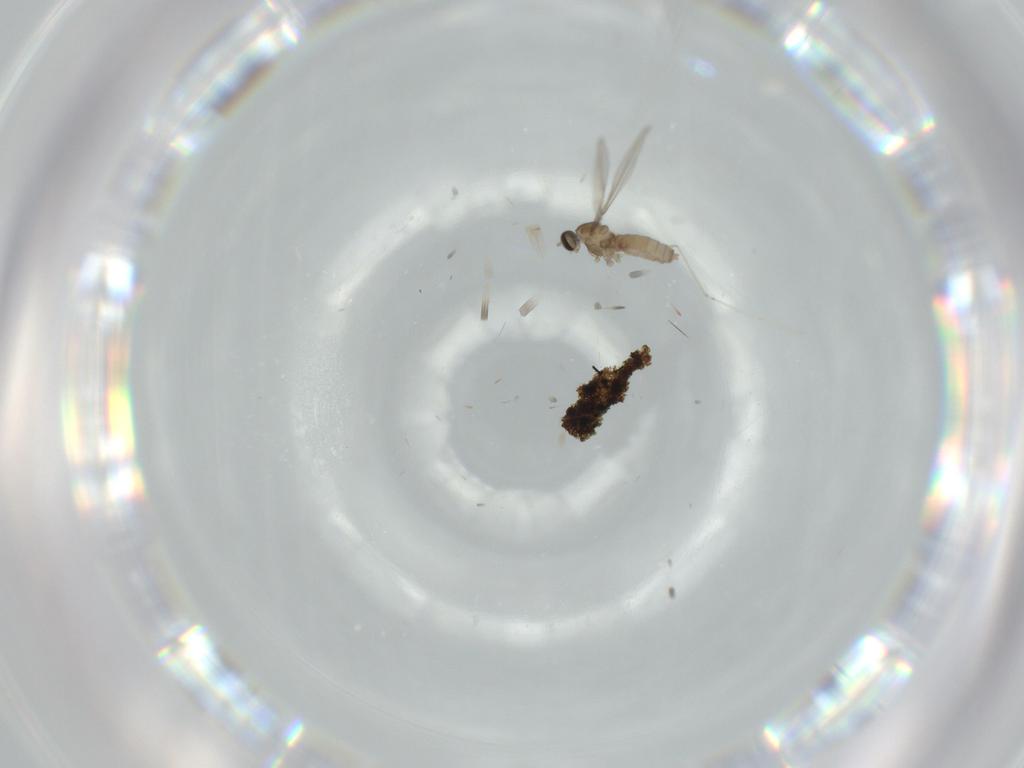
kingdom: Animalia
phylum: Arthropoda
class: Insecta
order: Diptera
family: Cecidomyiidae
